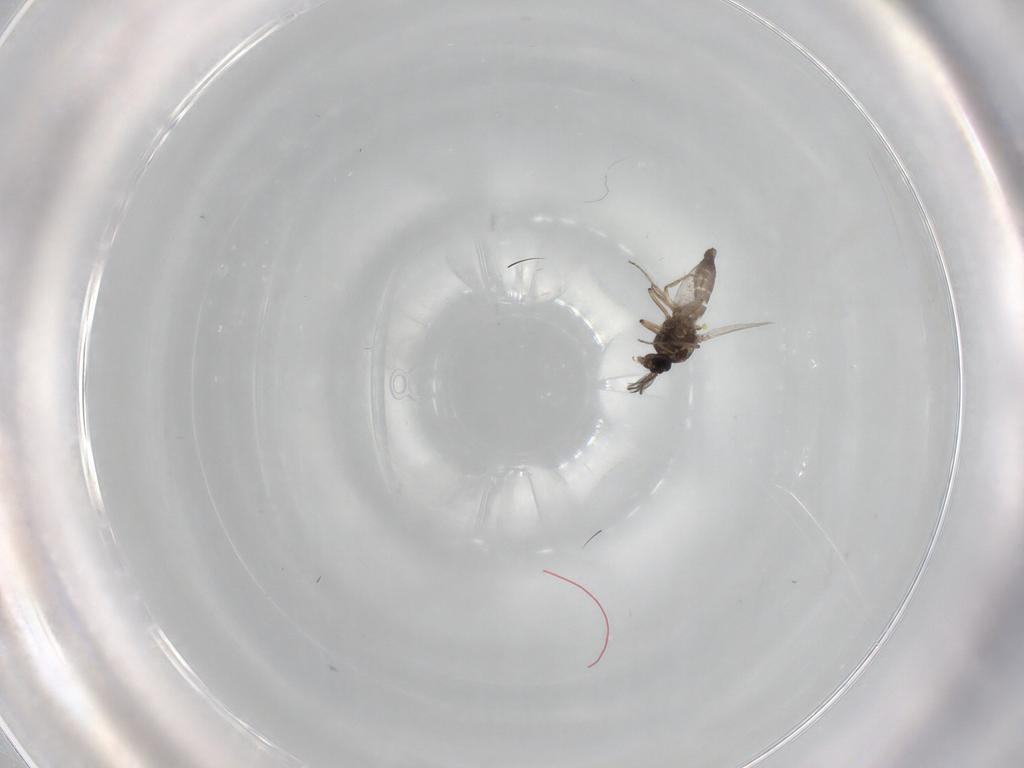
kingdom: Animalia
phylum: Arthropoda
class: Insecta
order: Diptera
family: Ceratopogonidae
